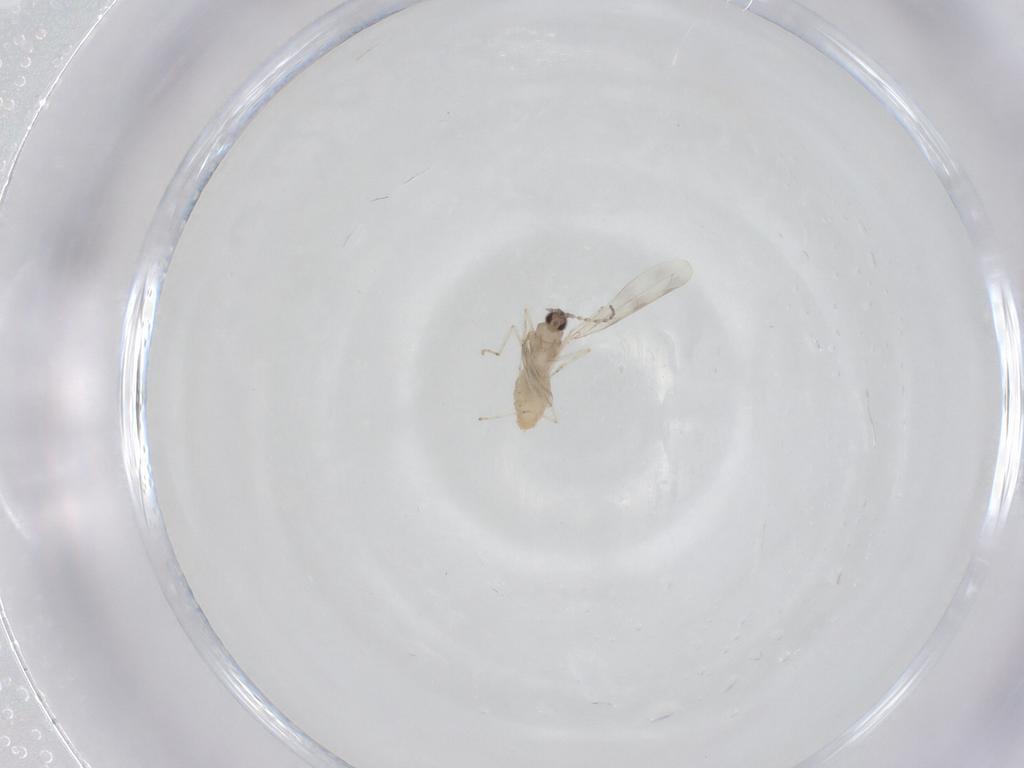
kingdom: Animalia
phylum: Arthropoda
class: Insecta
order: Diptera
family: Cecidomyiidae
